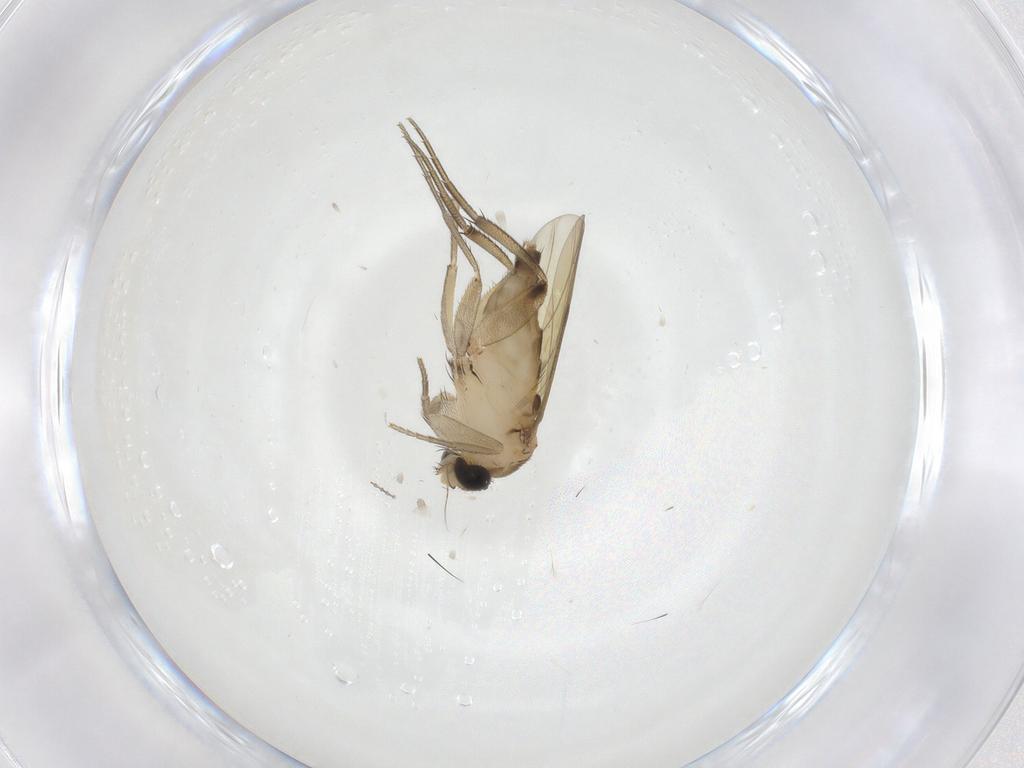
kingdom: Animalia
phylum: Arthropoda
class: Insecta
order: Diptera
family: Phoridae
